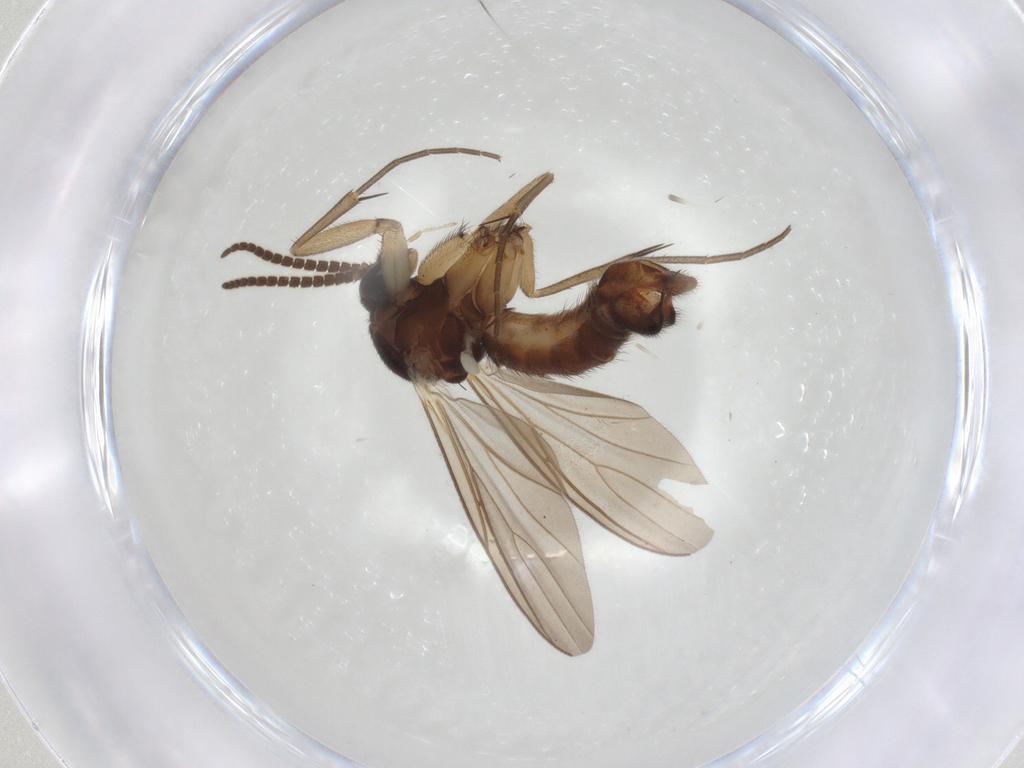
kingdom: Animalia
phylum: Arthropoda
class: Insecta
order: Diptera
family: Mycetophilidae
